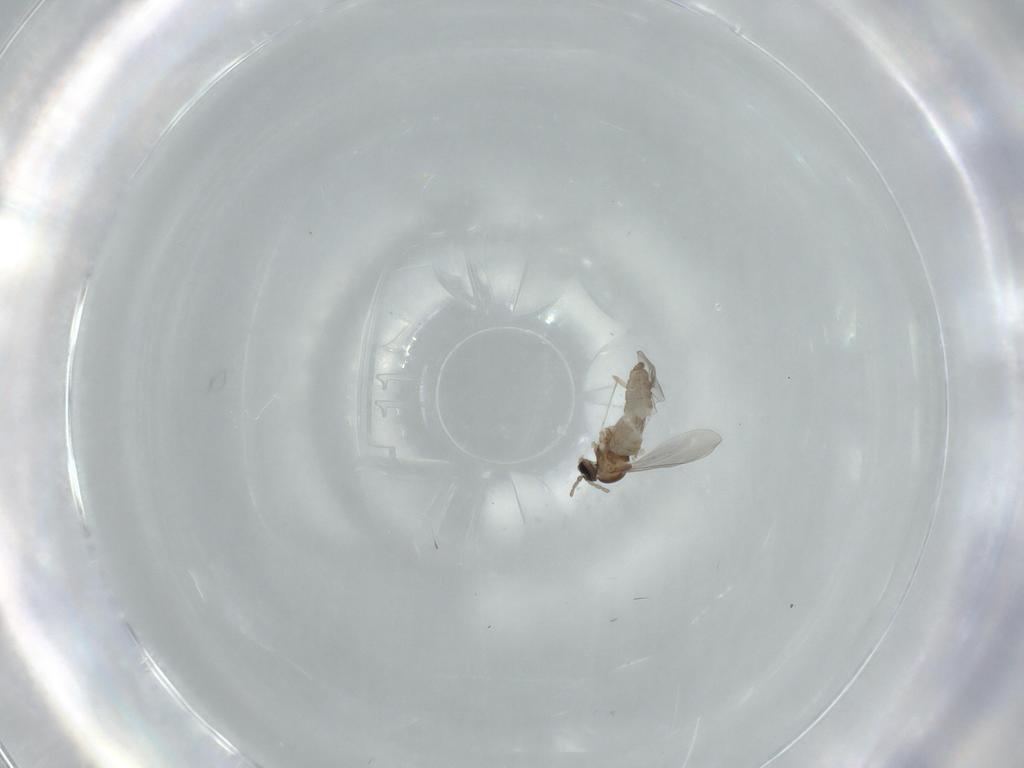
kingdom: Animalia
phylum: Arthropoda
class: Insecta
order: Diptera
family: Cecidomyiidae
